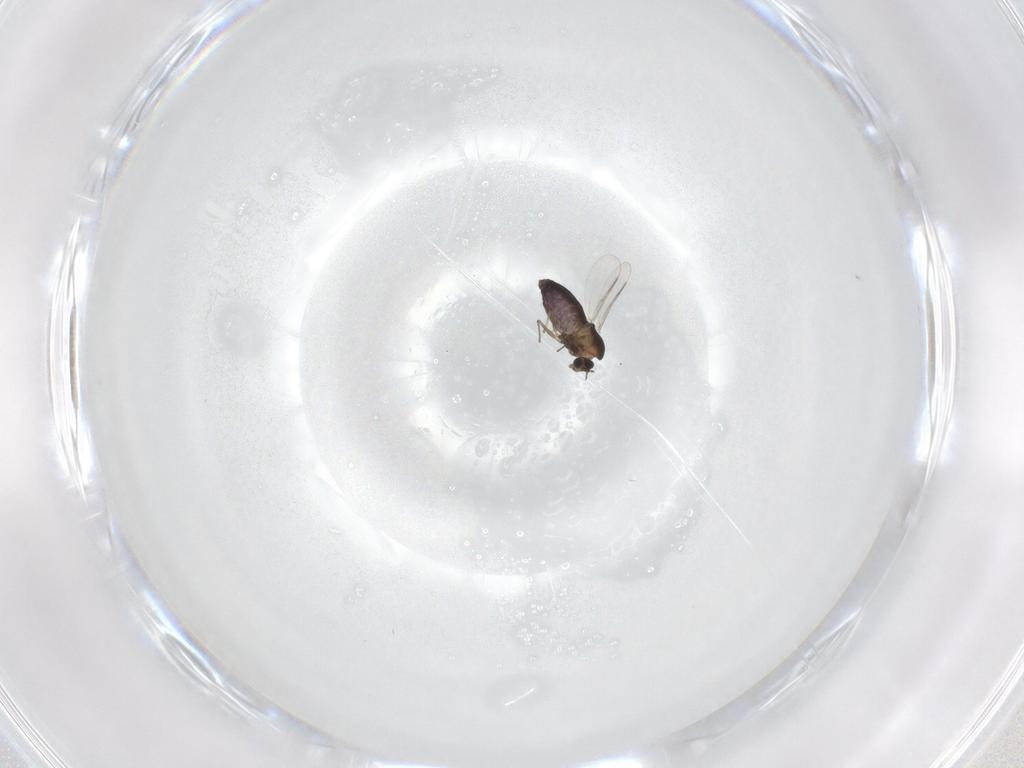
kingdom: Animalia
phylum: Arthropoda
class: Insecta
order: Diptera
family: Chironomidae
